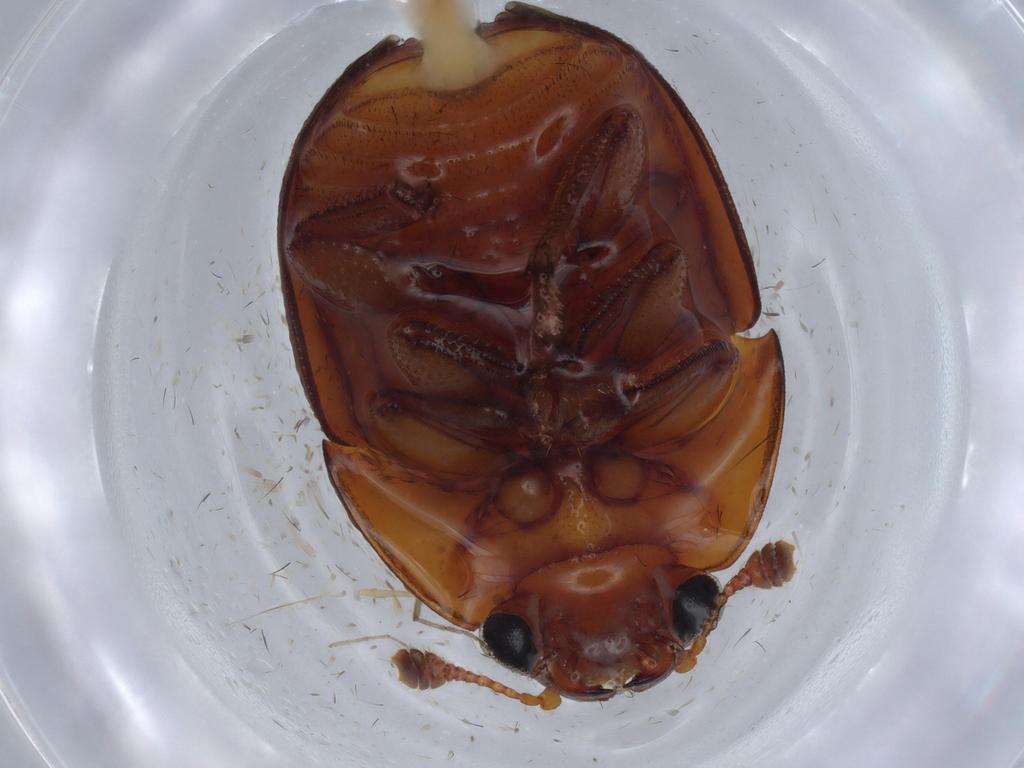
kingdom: Animalia
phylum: Arthropoda
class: Insecta
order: Coleoptera
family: Nitidulidae
